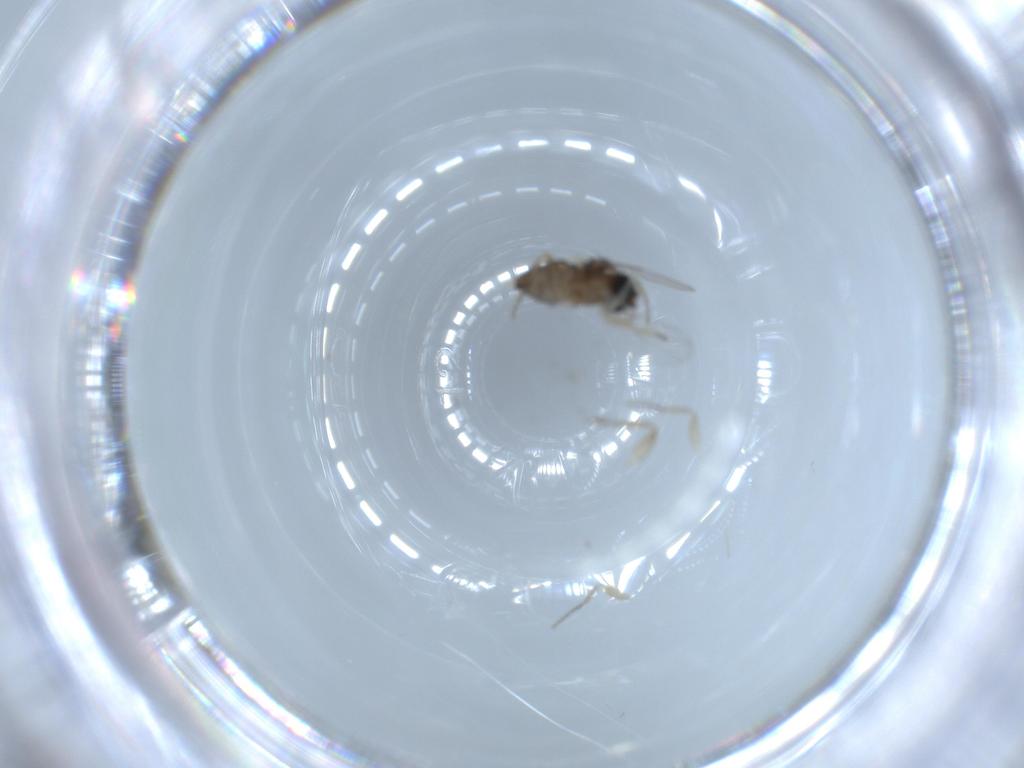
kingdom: Animalia
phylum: Arthropoda
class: Insecta
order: Diptera
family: Phoridae
